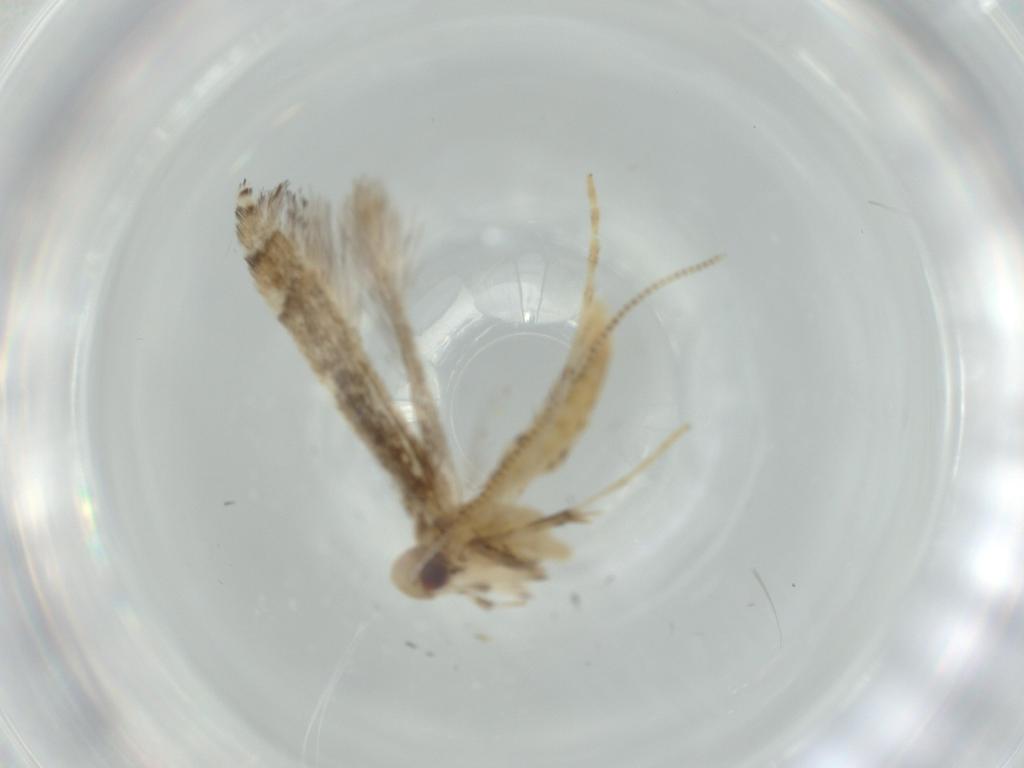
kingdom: Animalia
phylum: Arthropoda
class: Insecta
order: Lepidoptera
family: Gracillariidae
